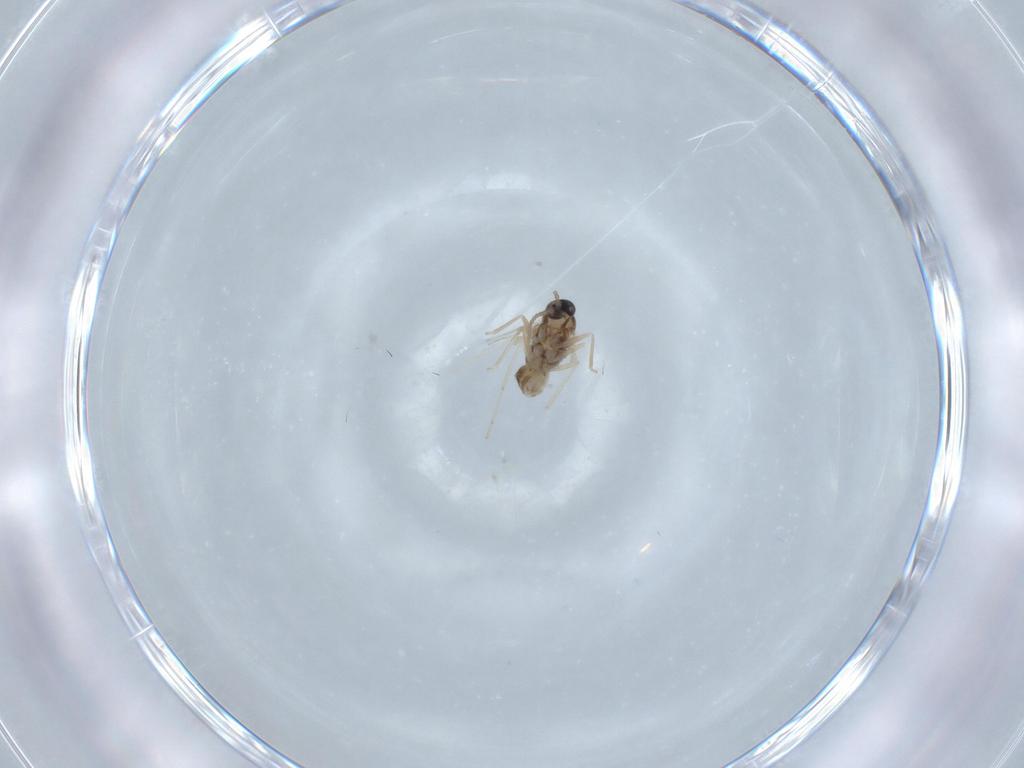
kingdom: Animalia
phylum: Arthropoda
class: Insecta
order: Diptera
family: Cecidomyiidae
